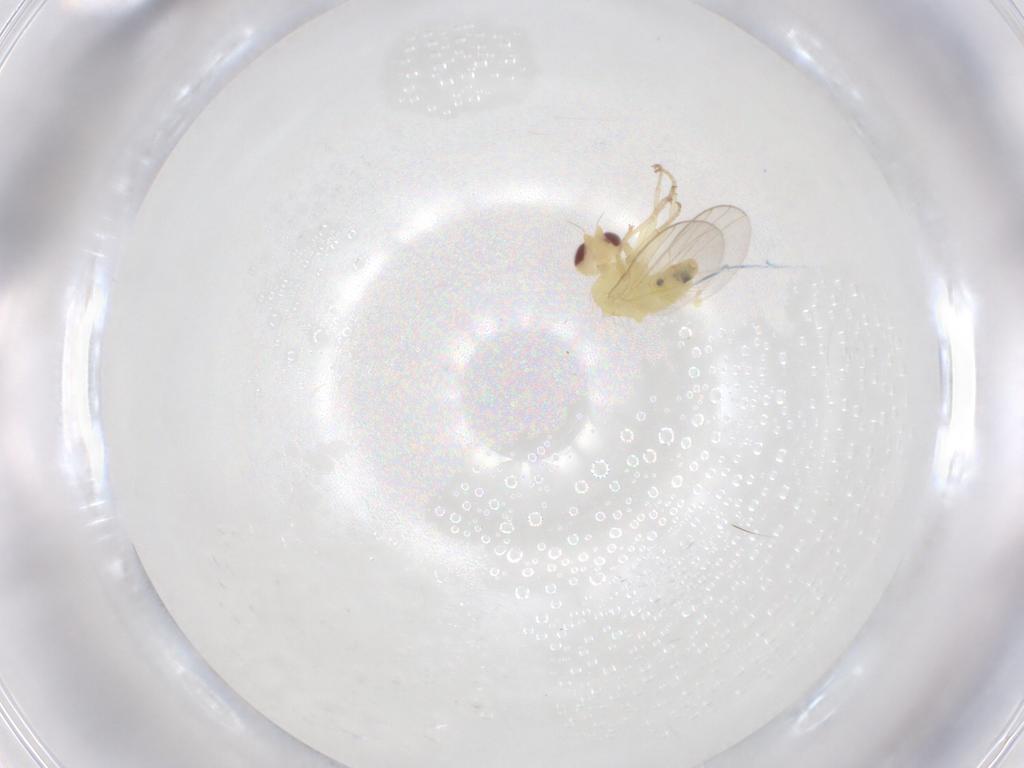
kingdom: Animalia
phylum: Arthropoda
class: Insecta
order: Diptera
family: Agromyzidae
